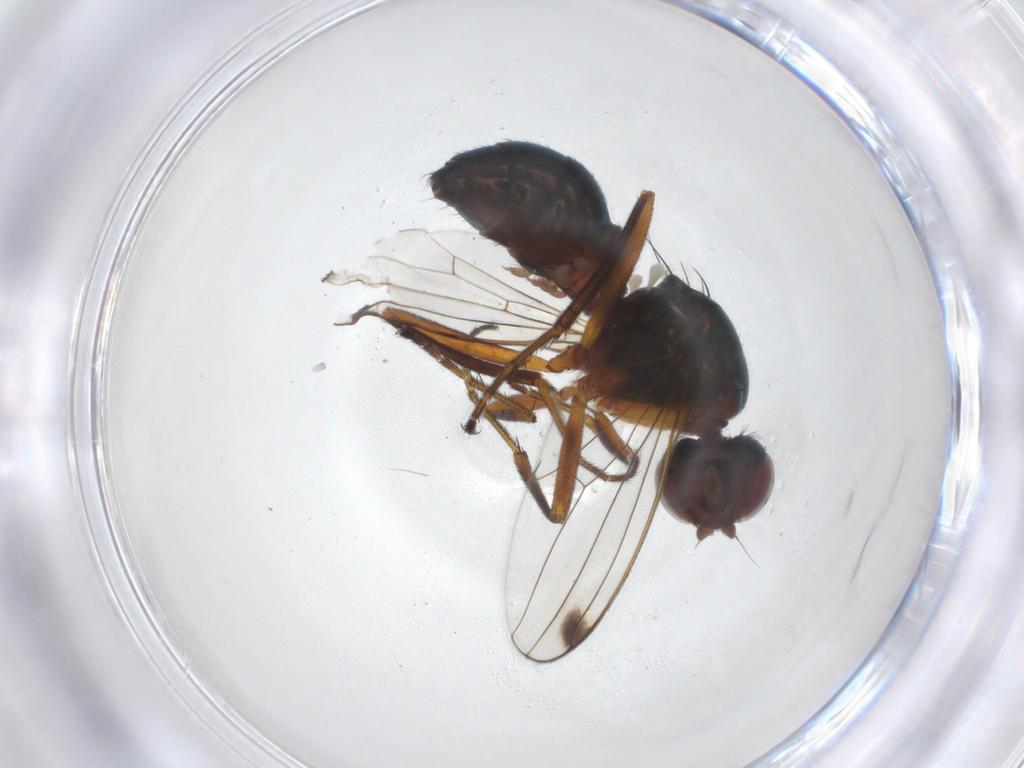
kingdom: Animalia
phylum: Arthropoda
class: Insecta
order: Diptera
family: Sepsidae
